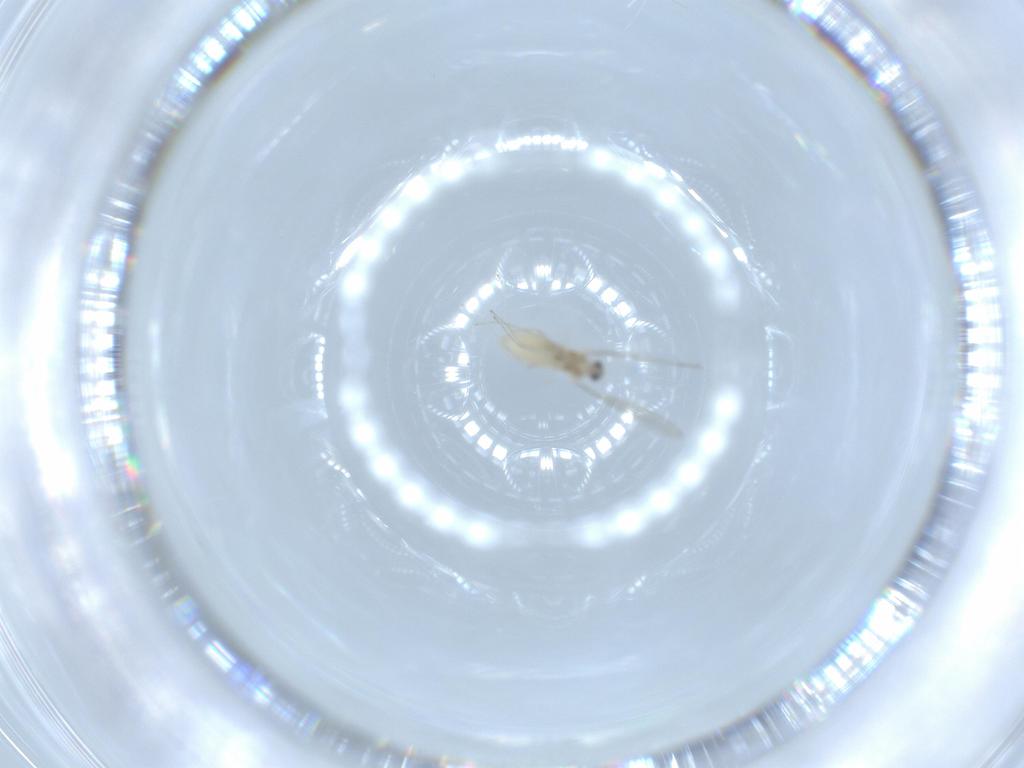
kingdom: Animalia
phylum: Arthropoda
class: Insecta
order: Diptera
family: Cecidomyiidae
